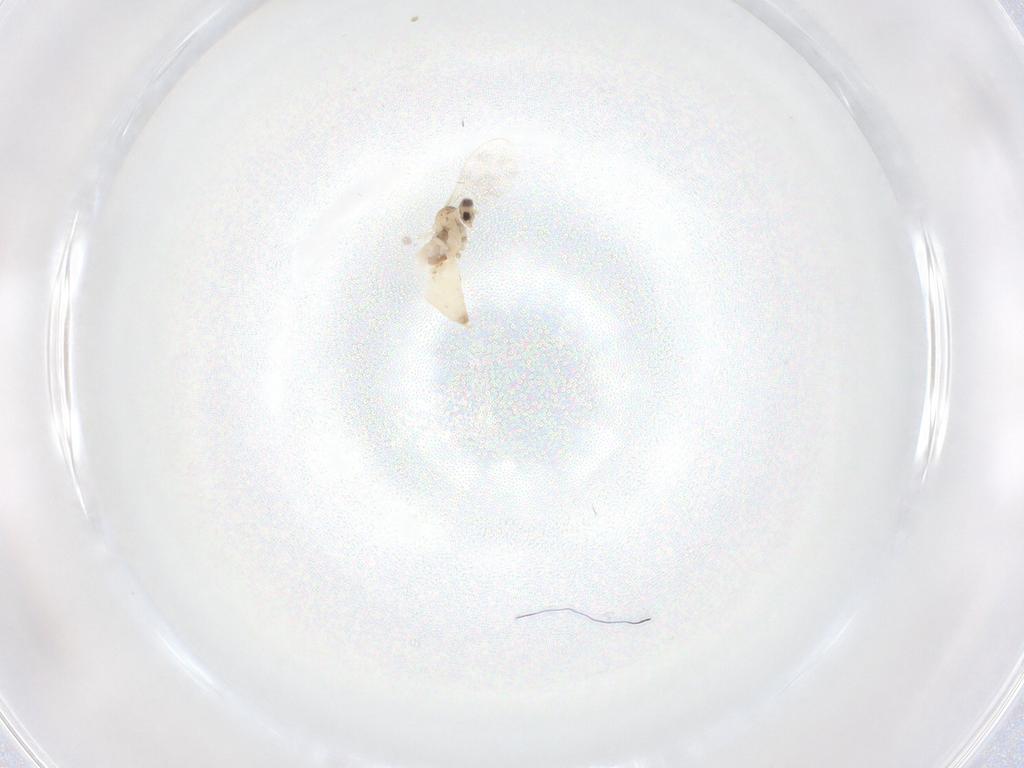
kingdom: Animalia
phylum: Arthropoda
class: Insecta
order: Diptera
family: Cecidomyiidae
